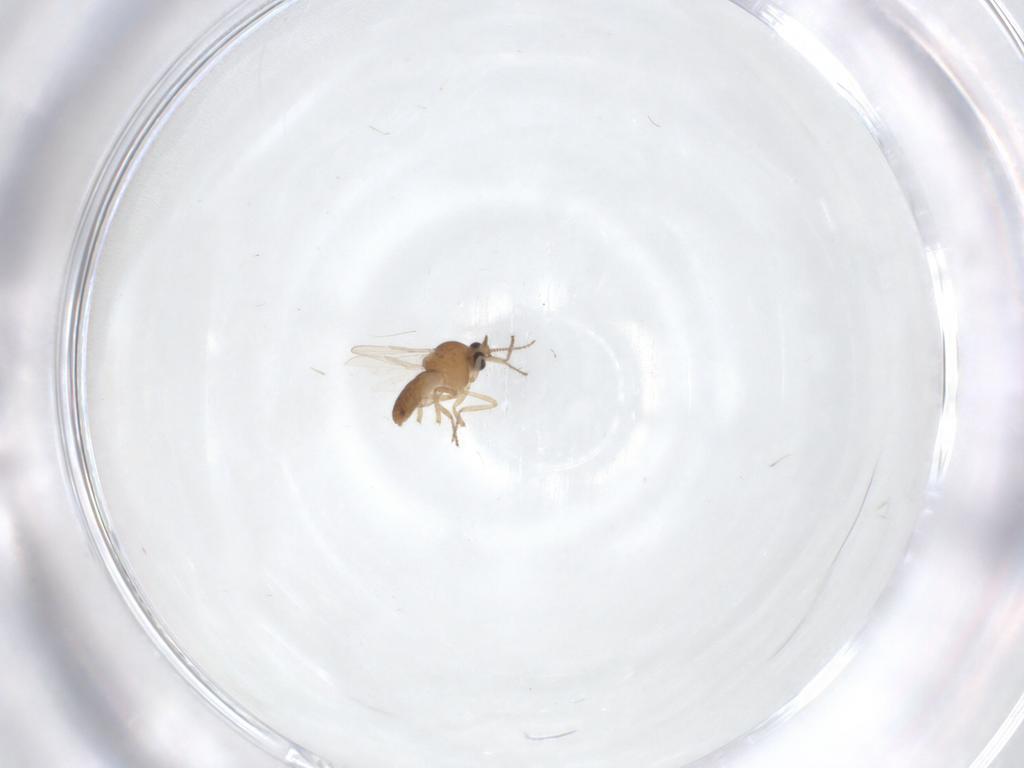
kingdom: Animalia
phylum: Arthropoda
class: Insecta
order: Diptera
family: Ceratopogonidae
